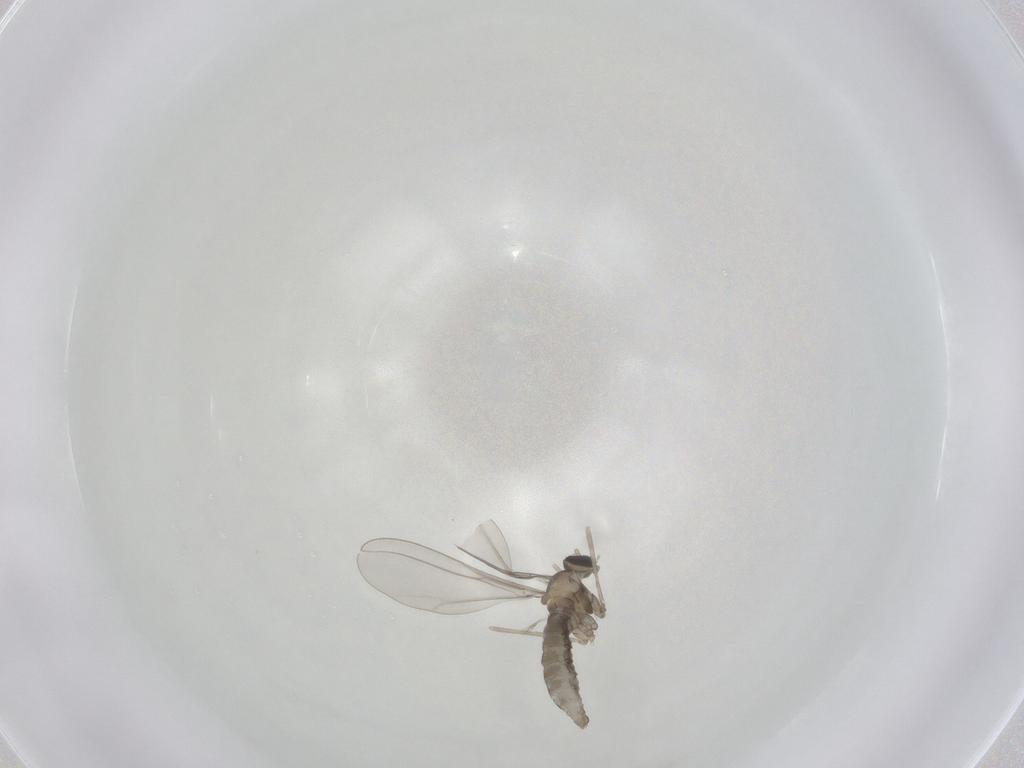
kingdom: Animalia
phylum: Arthropoda
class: Insecta
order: Diptera
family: Cecidomyiidae
